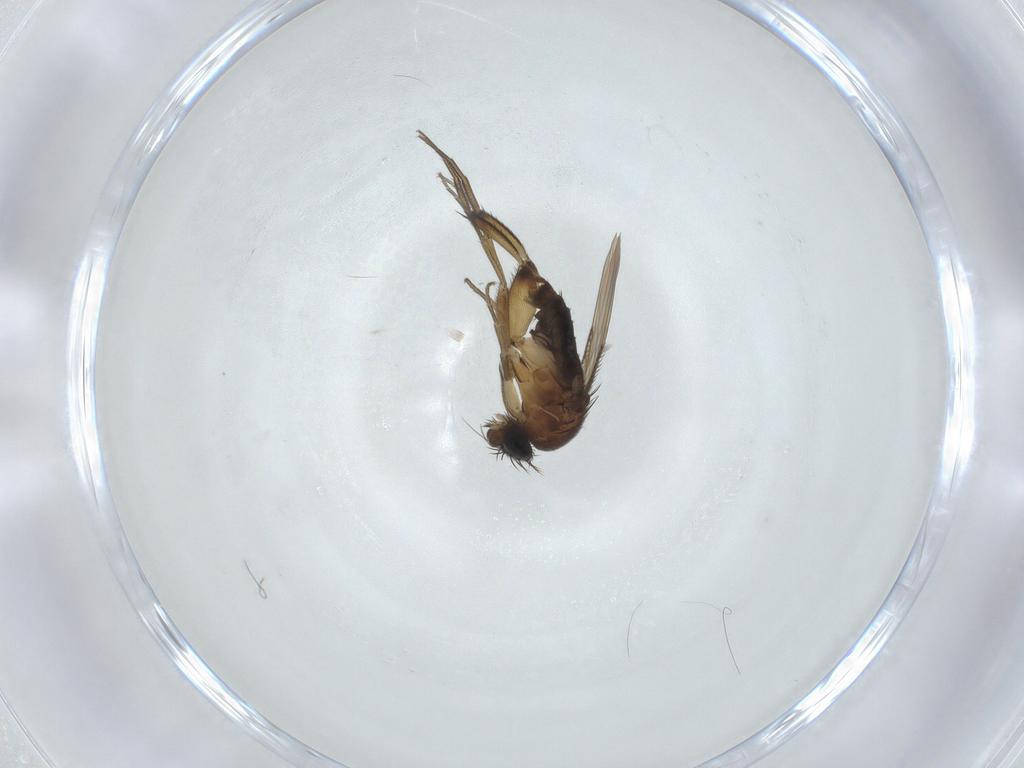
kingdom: Animalia
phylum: Arthropoda
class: Insecta
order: Diptera
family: Phoridae
